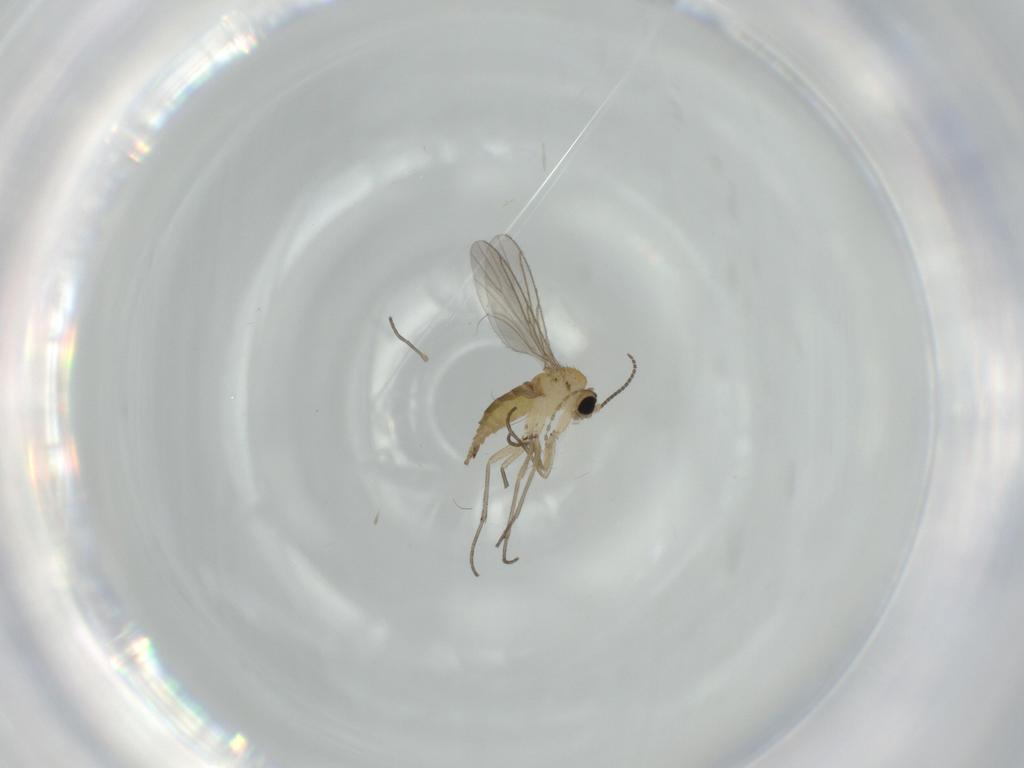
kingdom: Animalia
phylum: Arthropoda
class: Insecta
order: Diptera
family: Sciaridae
